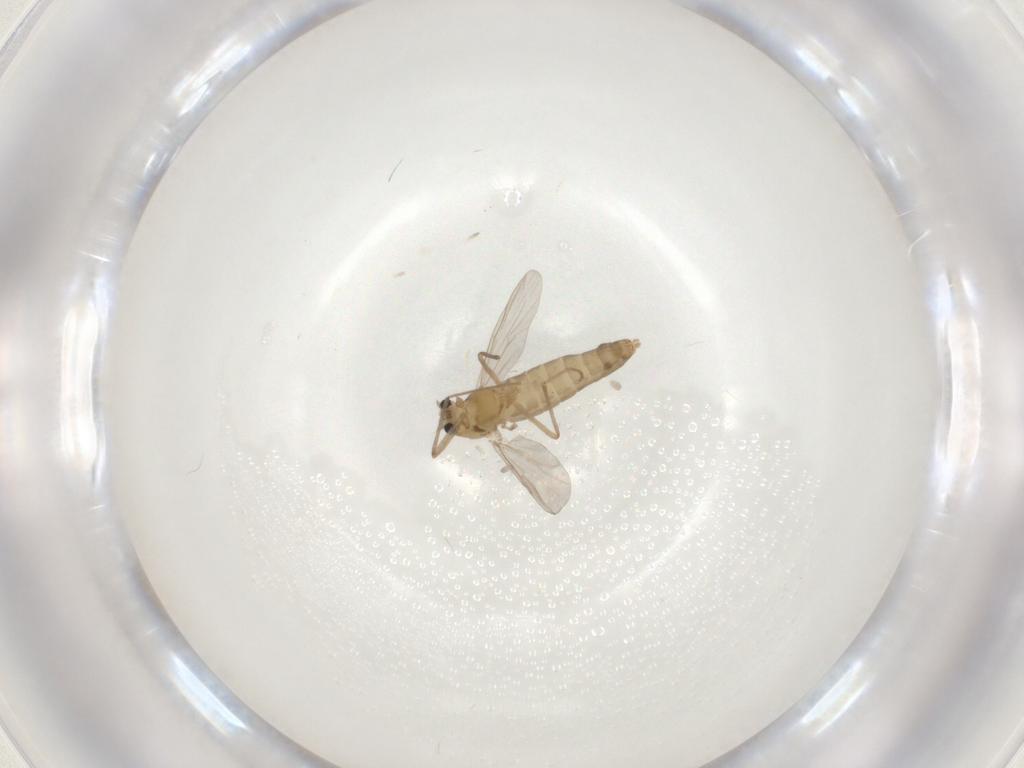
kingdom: Animalia
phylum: Arthropoda
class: Insecta
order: Diptera
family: Chironomidae
